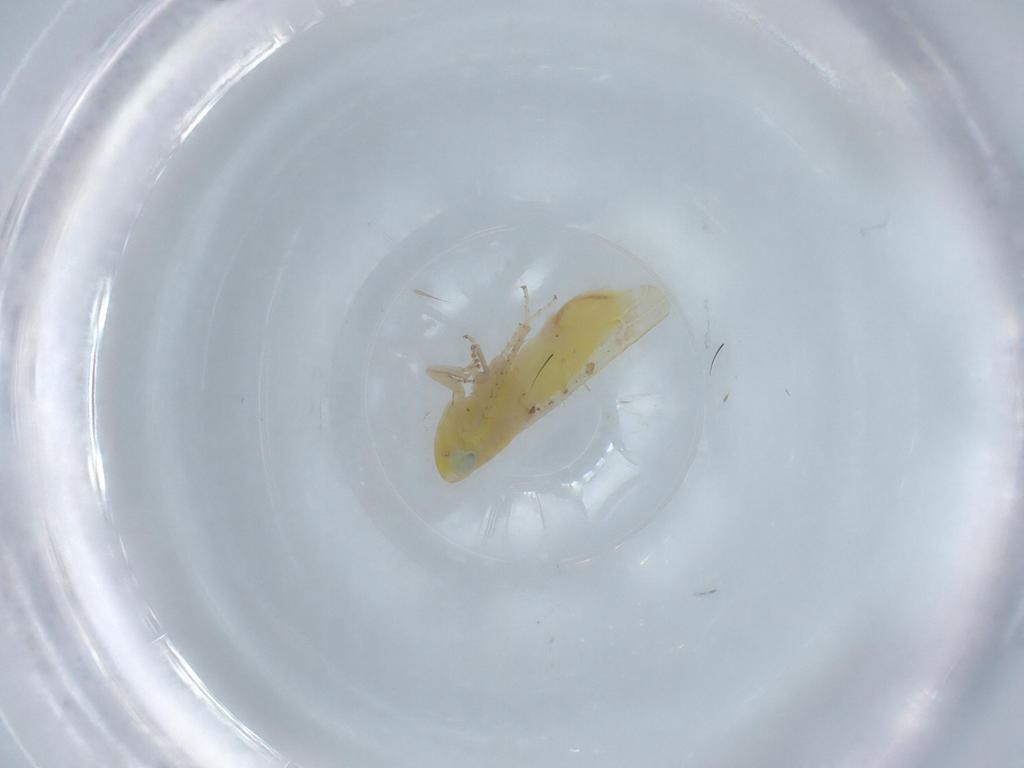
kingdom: Animalia
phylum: Arthropoda
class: Insecta
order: Hemiptera
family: Cicadellidae
